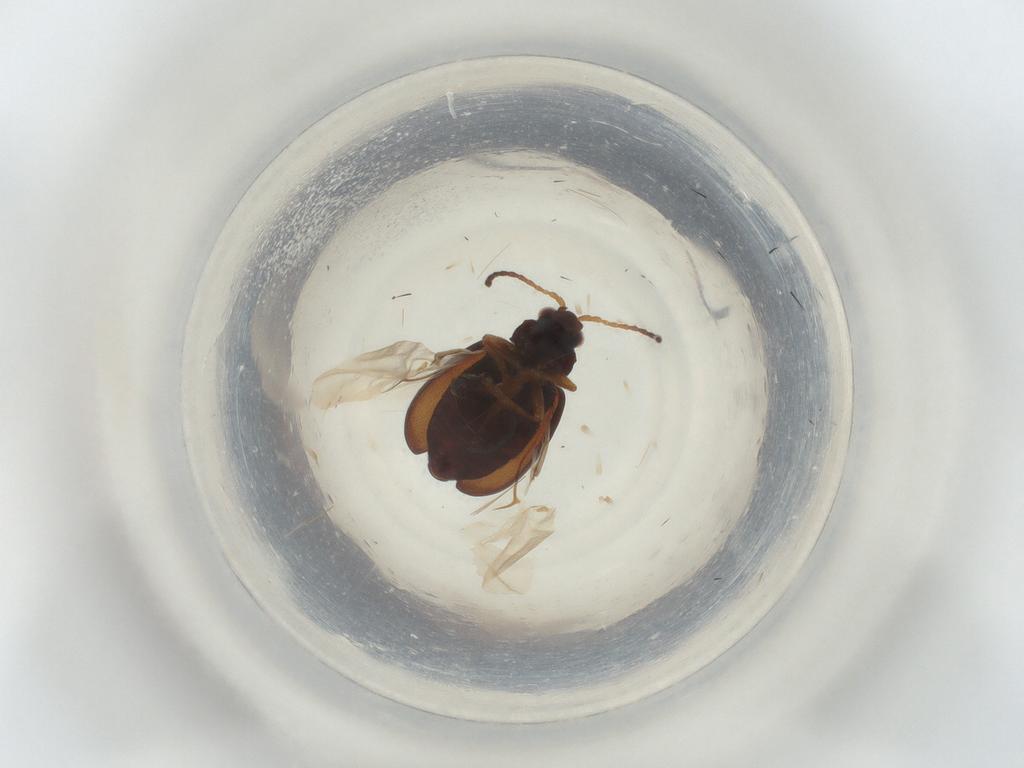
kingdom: Animalia
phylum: Arthropoda
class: Insecta
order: Coleoptera
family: Chrysomelidae
